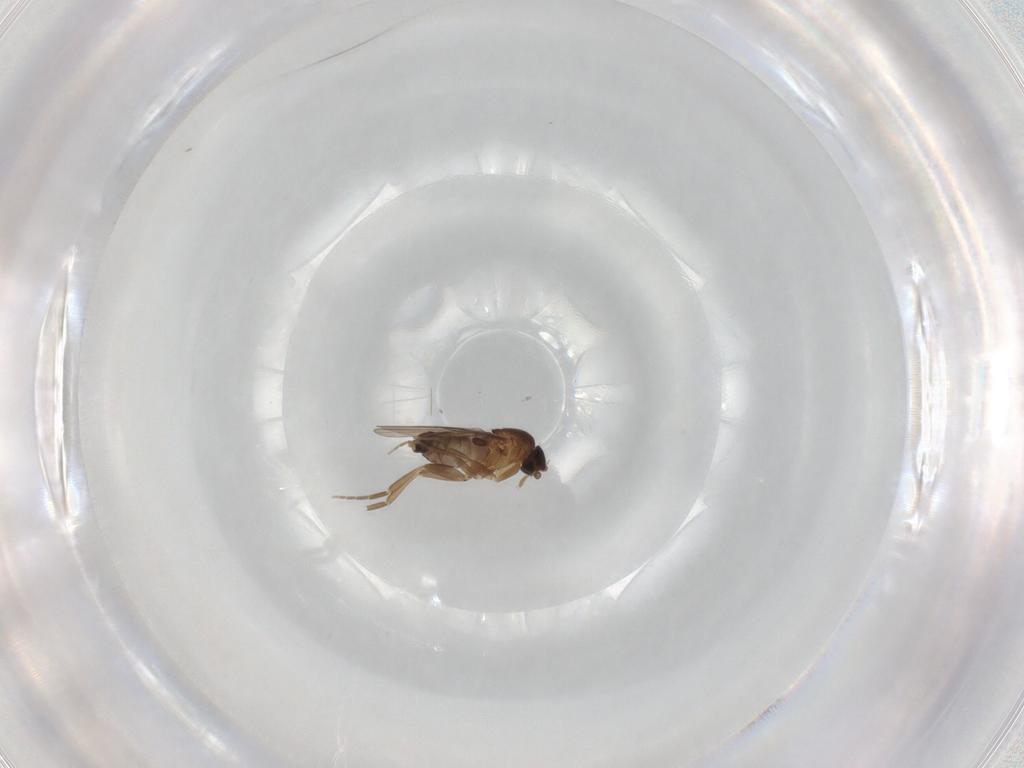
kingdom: Animalia
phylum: Arthropoda
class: Insecta
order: Diptera
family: Phoridae
